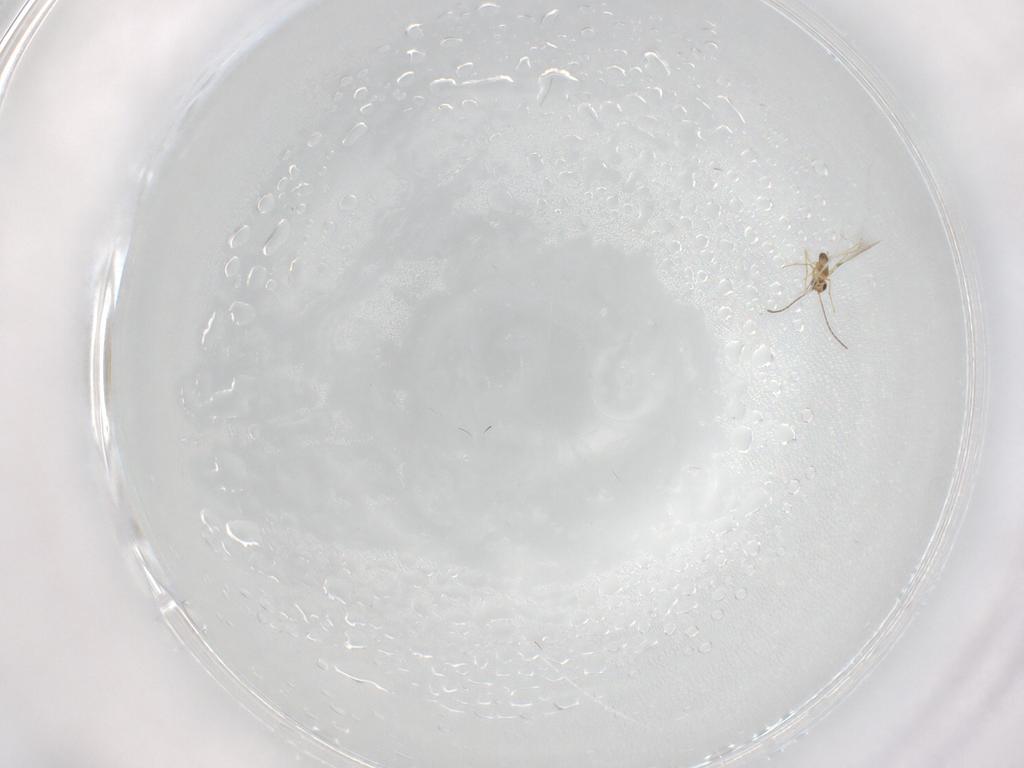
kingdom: Animalia
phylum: Arthropoda
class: Insecta
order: Hymenoptera
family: Mymaridae
